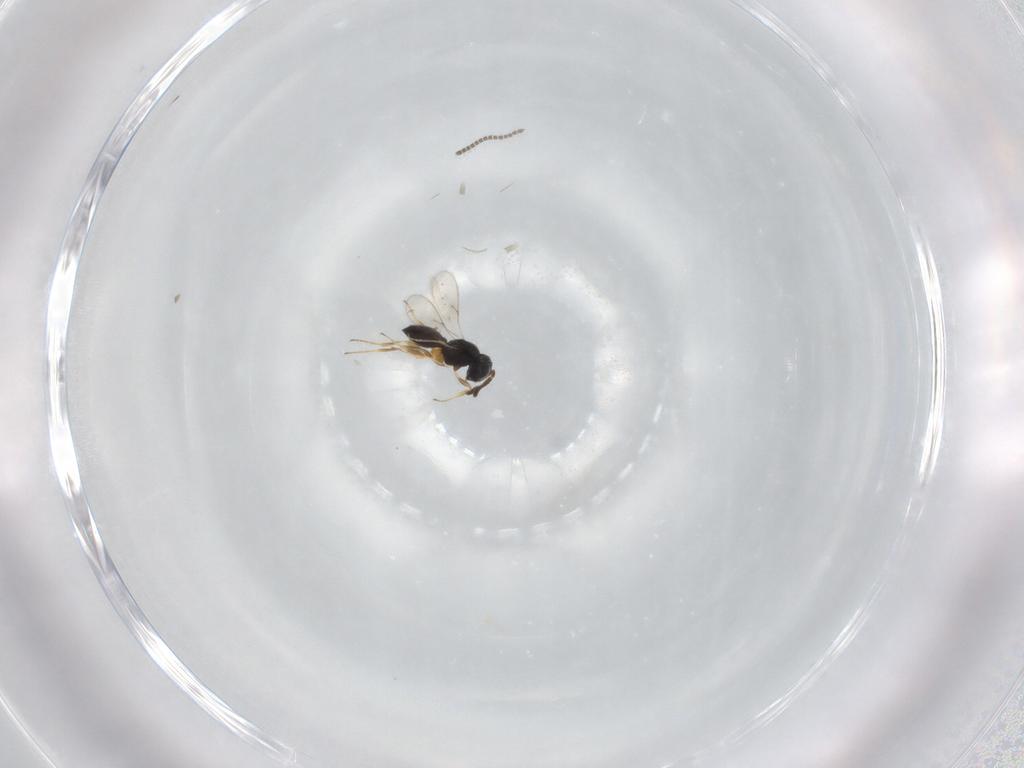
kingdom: Animalia
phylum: Arthropoda
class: Insecta
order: Hymenoptera
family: Scelionidae
